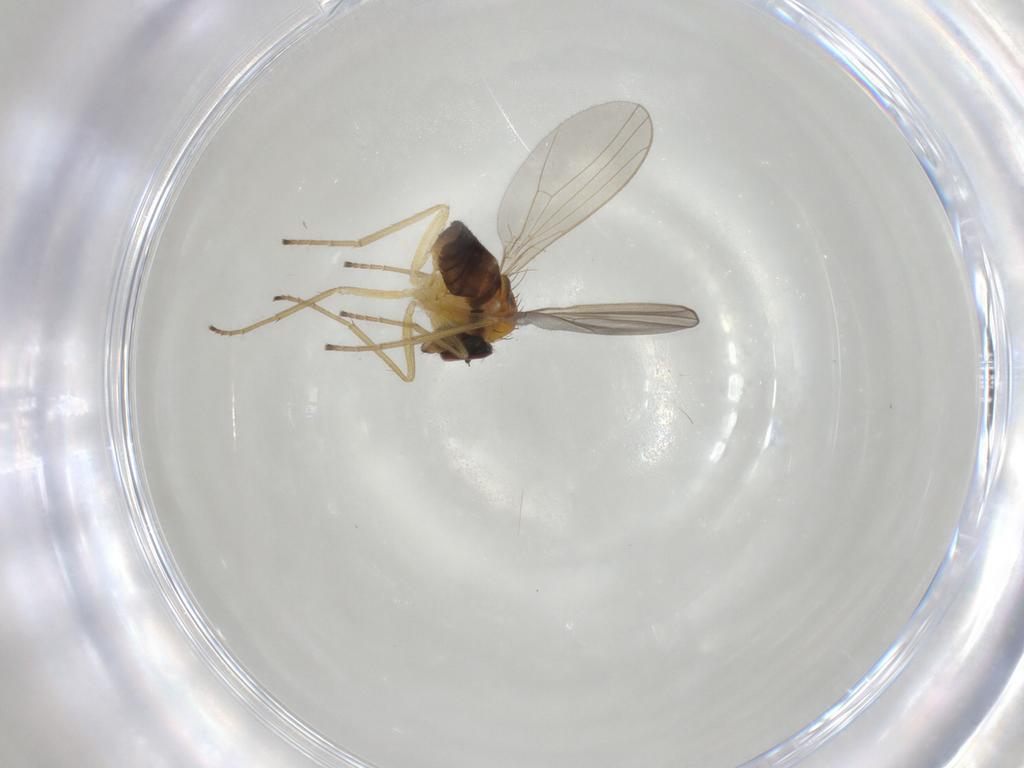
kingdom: Animalia
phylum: Arthropoda
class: Insecta
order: Diptera
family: Dolichopodidae
